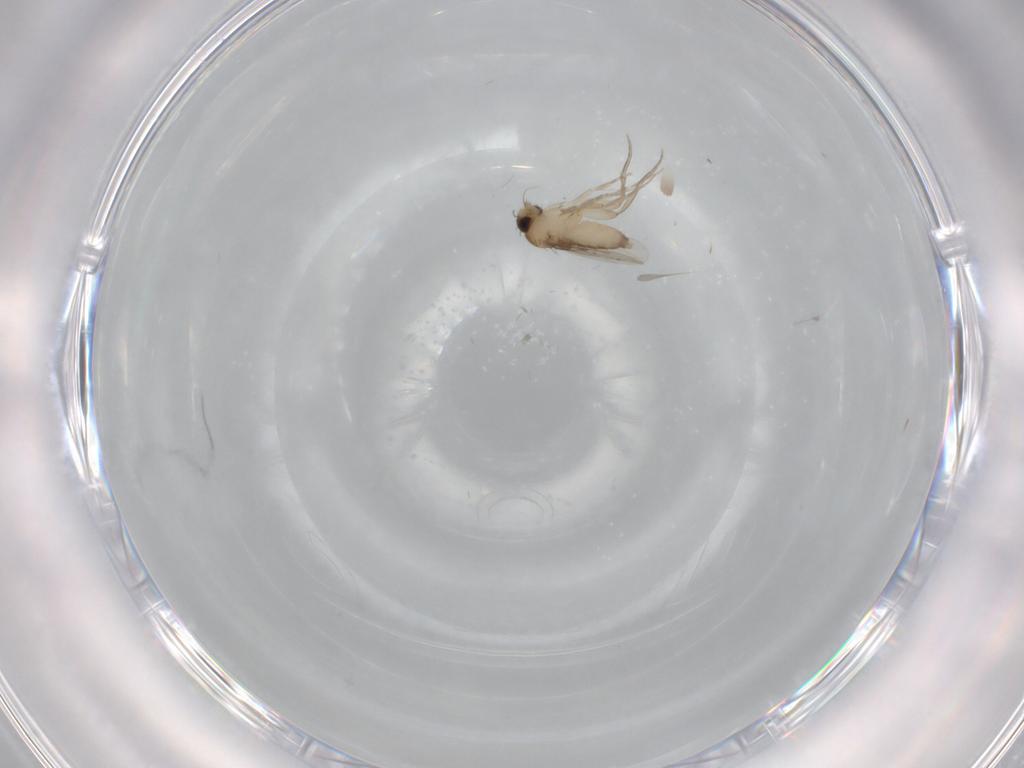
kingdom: Animalia
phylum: Arthropoda
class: Insecta
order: Diptera
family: Phoridae
